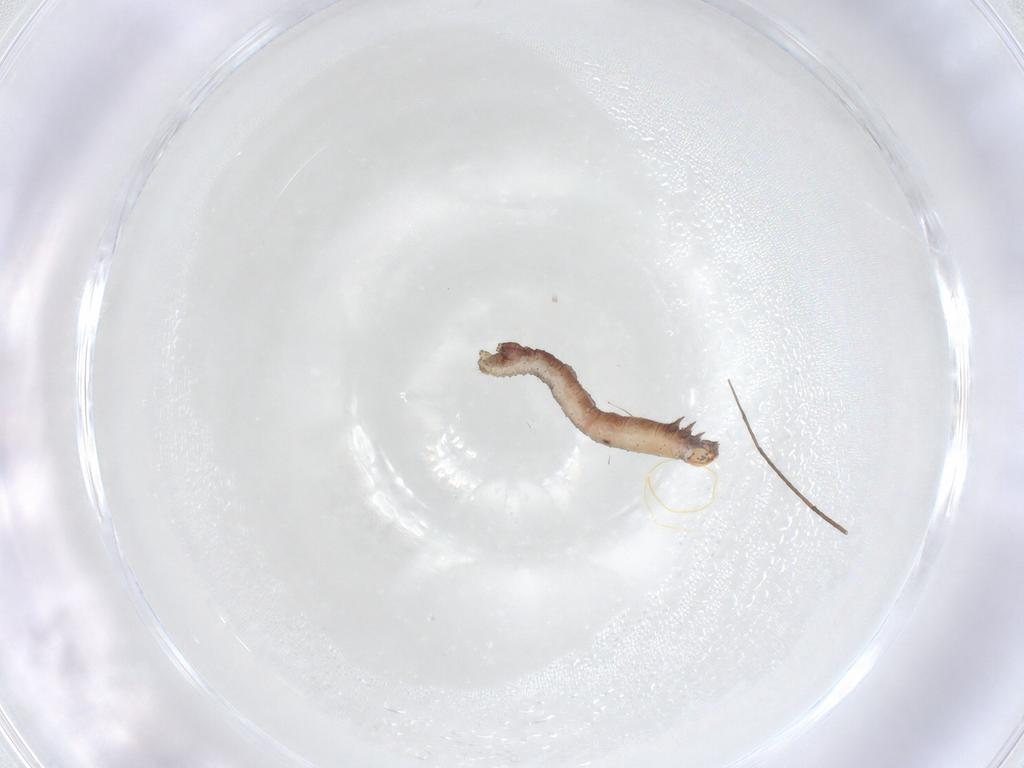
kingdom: Animalia
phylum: Arthropoda
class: Insecta
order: Lepidoptera
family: Geometridae
